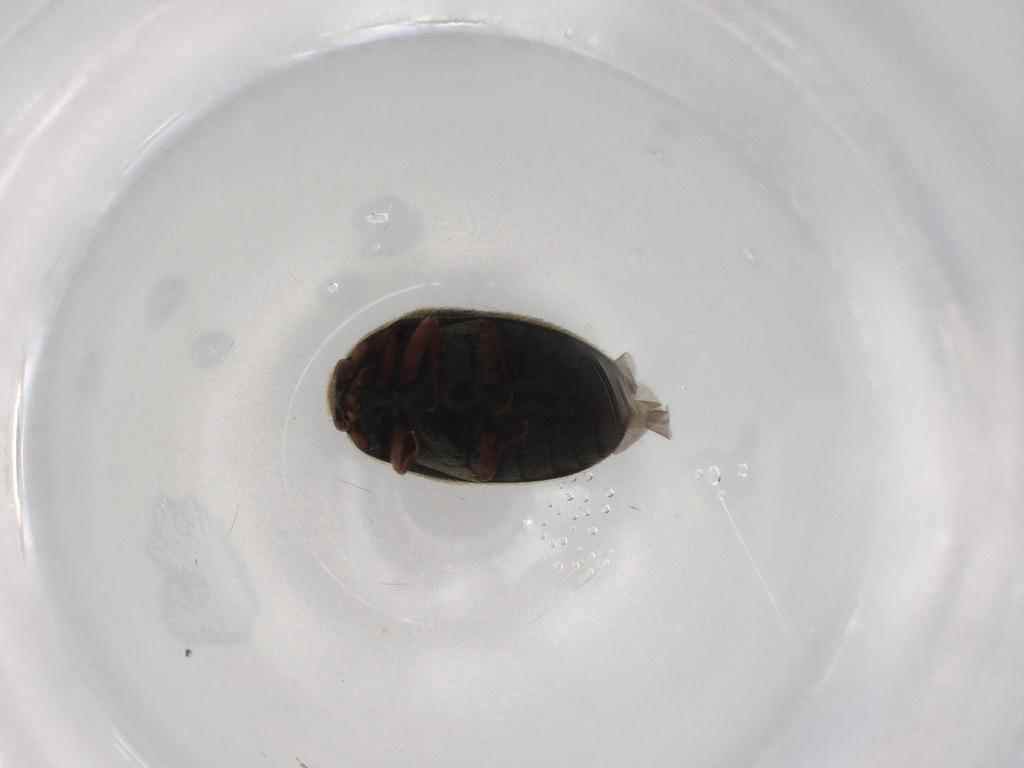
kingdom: Animalia
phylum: Arthropoda
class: Insecta
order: Coleoptera
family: Dermestidae
